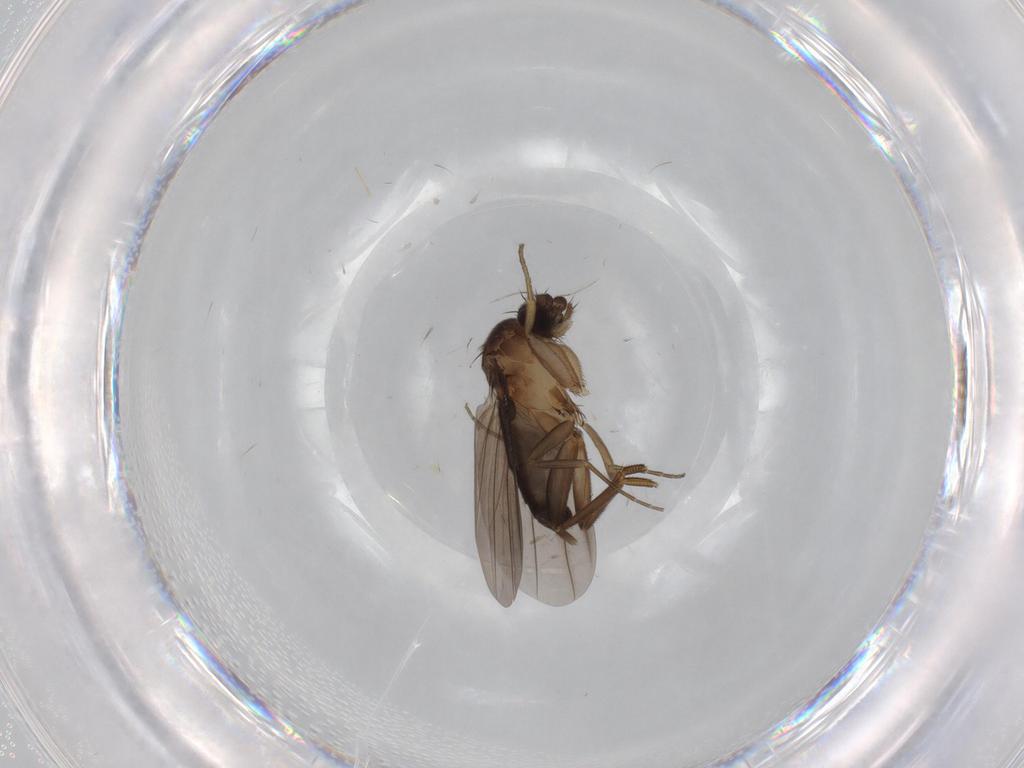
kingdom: Animalia
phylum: Arthropoda
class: Insecta
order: Diptera
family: Cecidomyiidae
